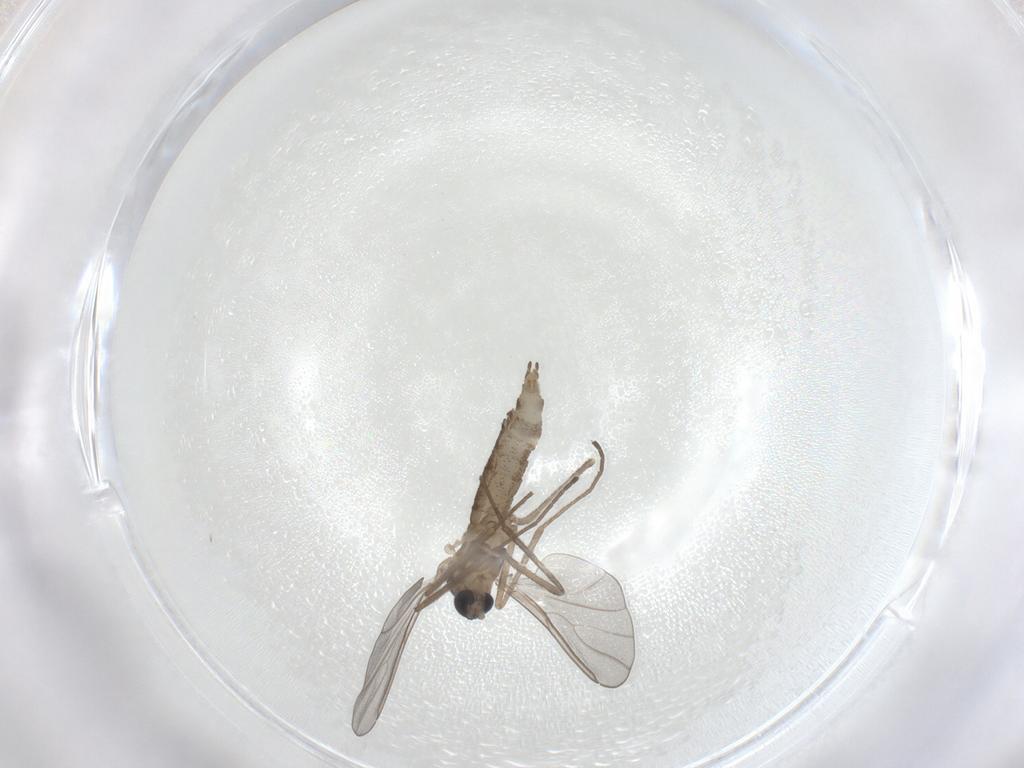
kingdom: Animalia
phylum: Arthropoda
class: Insecta
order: Diptera
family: Cecidomyiidae
